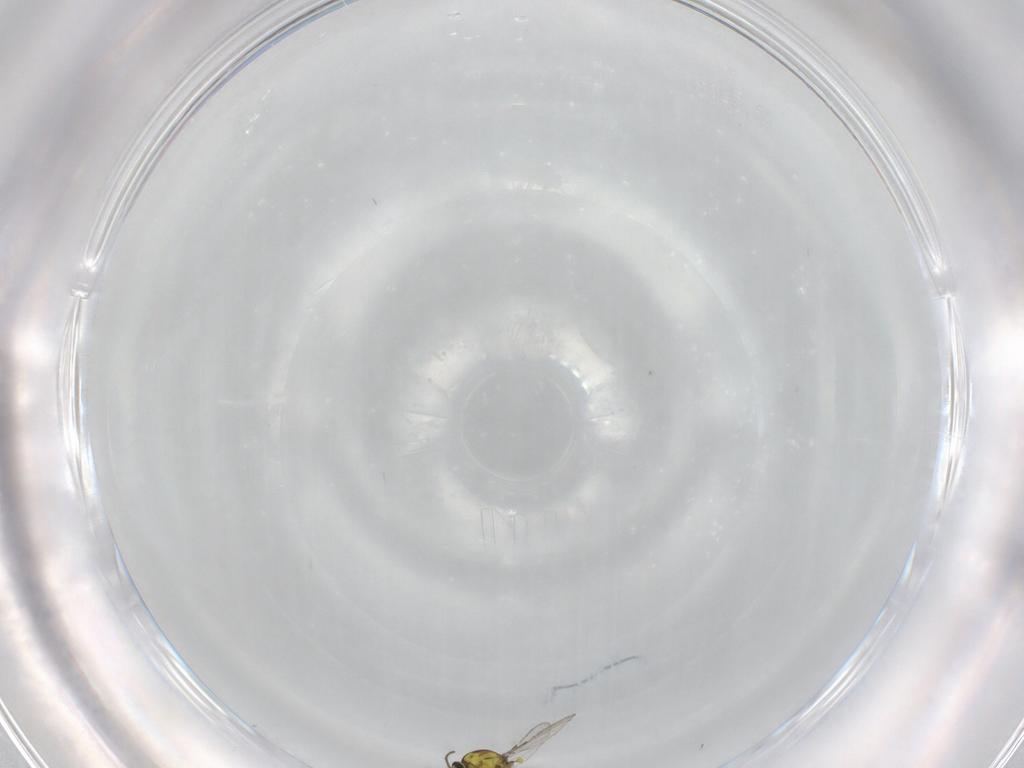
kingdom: Animalia
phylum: Arthropoda
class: Insecta
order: Diptera
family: Ceratopogonidae
